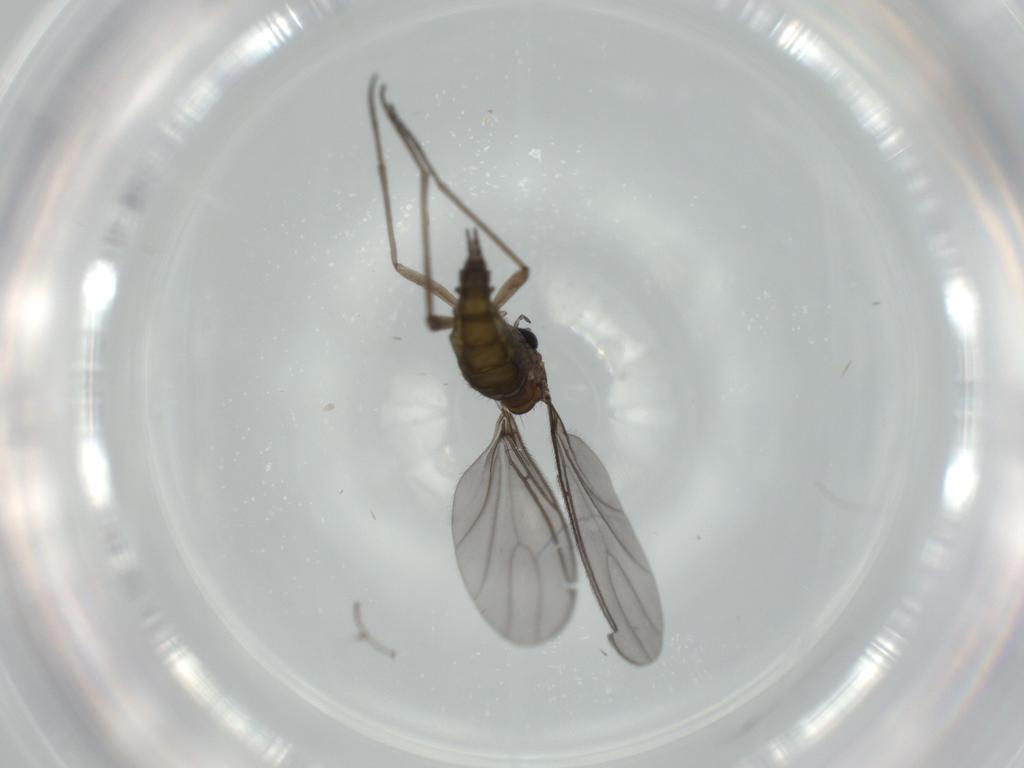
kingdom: Animalia
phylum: Arthropoda
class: Insecta
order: Diptera
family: Sciaridae
